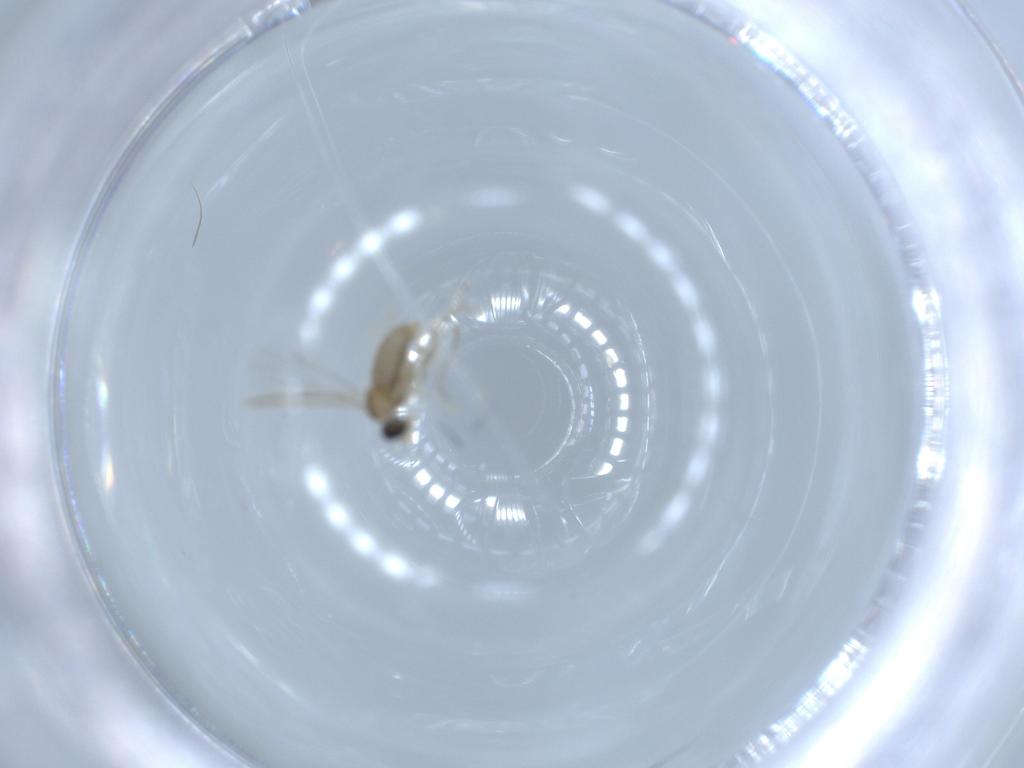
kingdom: Animalia
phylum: Arthropoda
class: Insecta
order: Diptera
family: Cecidomyiidae
